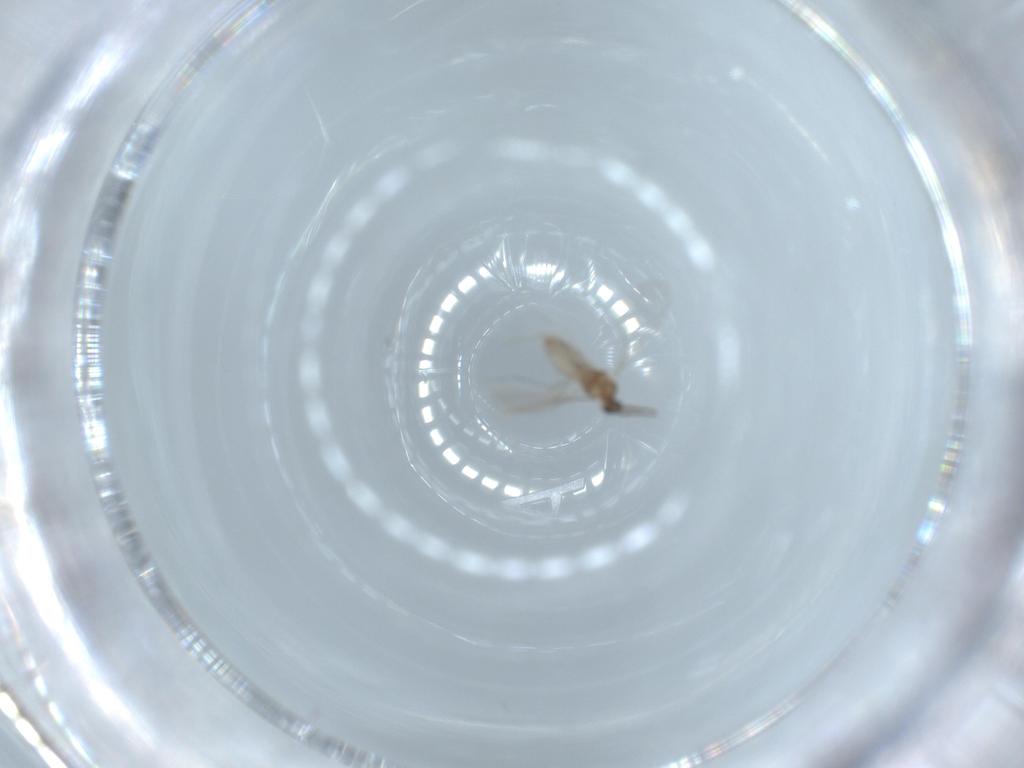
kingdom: Animalia
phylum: Arthropoda
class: Insecta
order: Diptera
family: Cecidomyiidae
